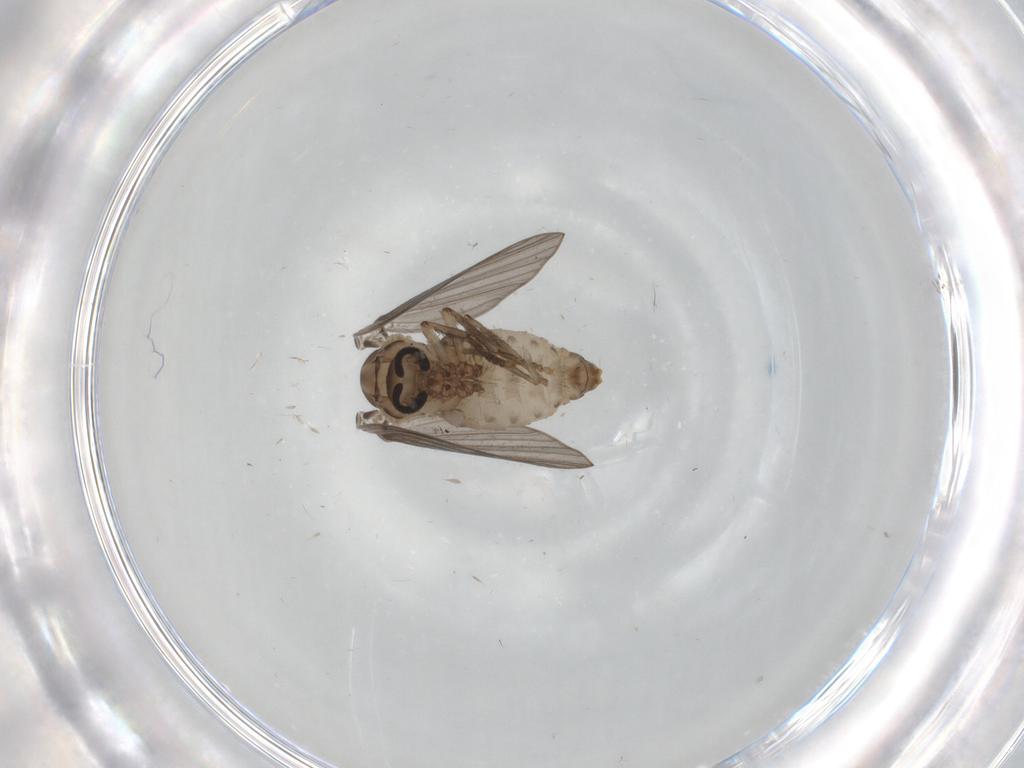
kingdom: Animalia
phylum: Arthropoda
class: Insecta
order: Diptera
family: Psychodidae
